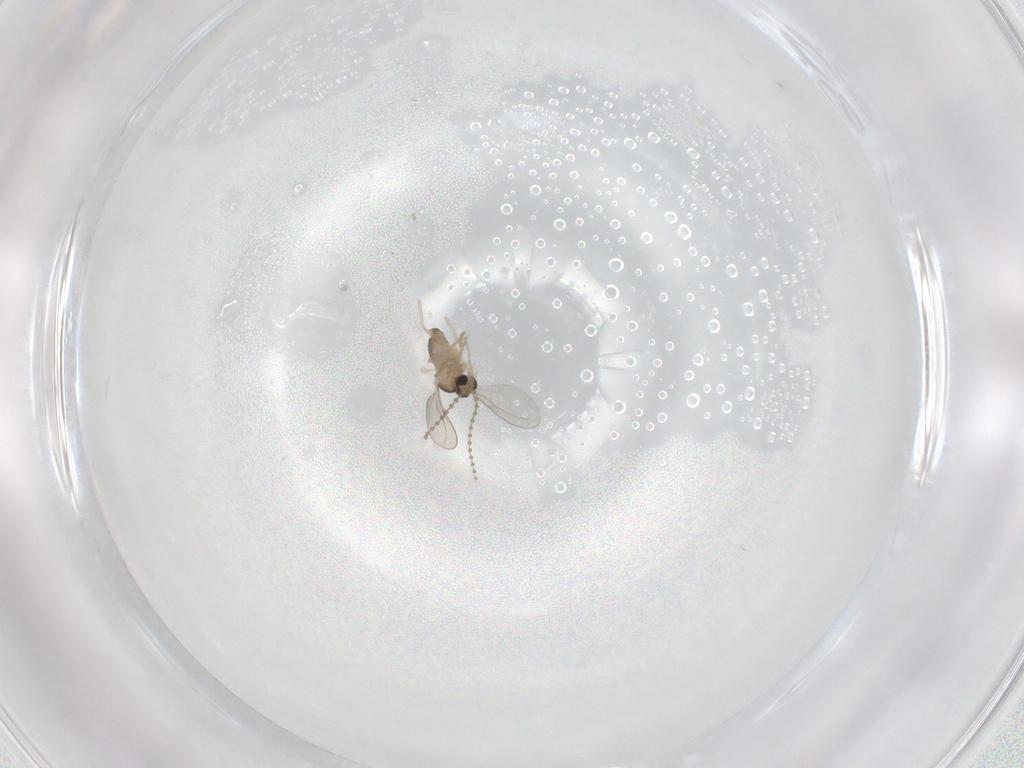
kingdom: Animalia
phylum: Arthropoda
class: Insecta
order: Diptera
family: Cecidomyiidae
